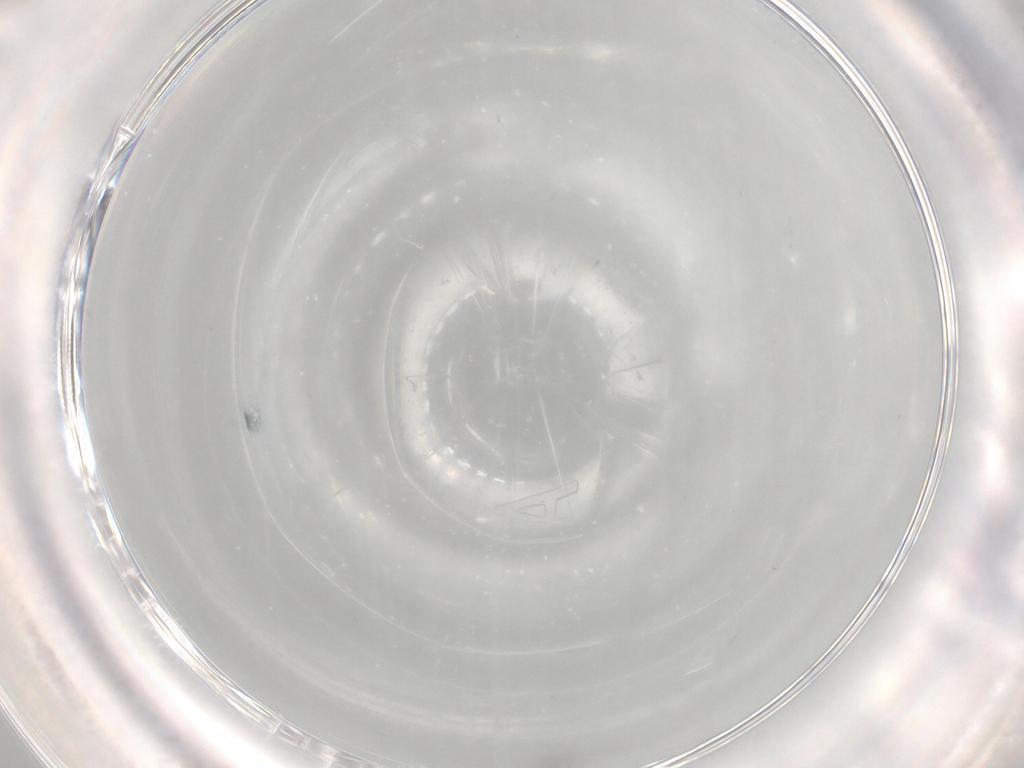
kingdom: Animalia
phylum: Arthropoda
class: Insecta
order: Diptera
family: Cecidomyiidae
